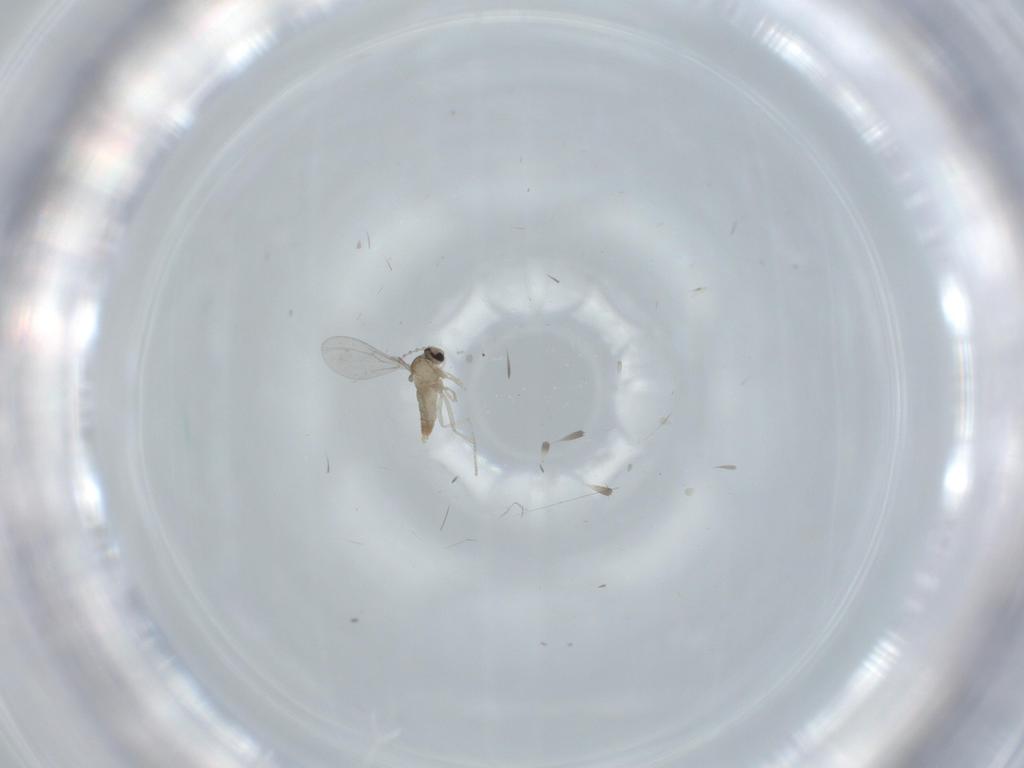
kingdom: Animalia
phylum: Arthropoda
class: Insecta
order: Diptera
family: Cecidomyiidae
